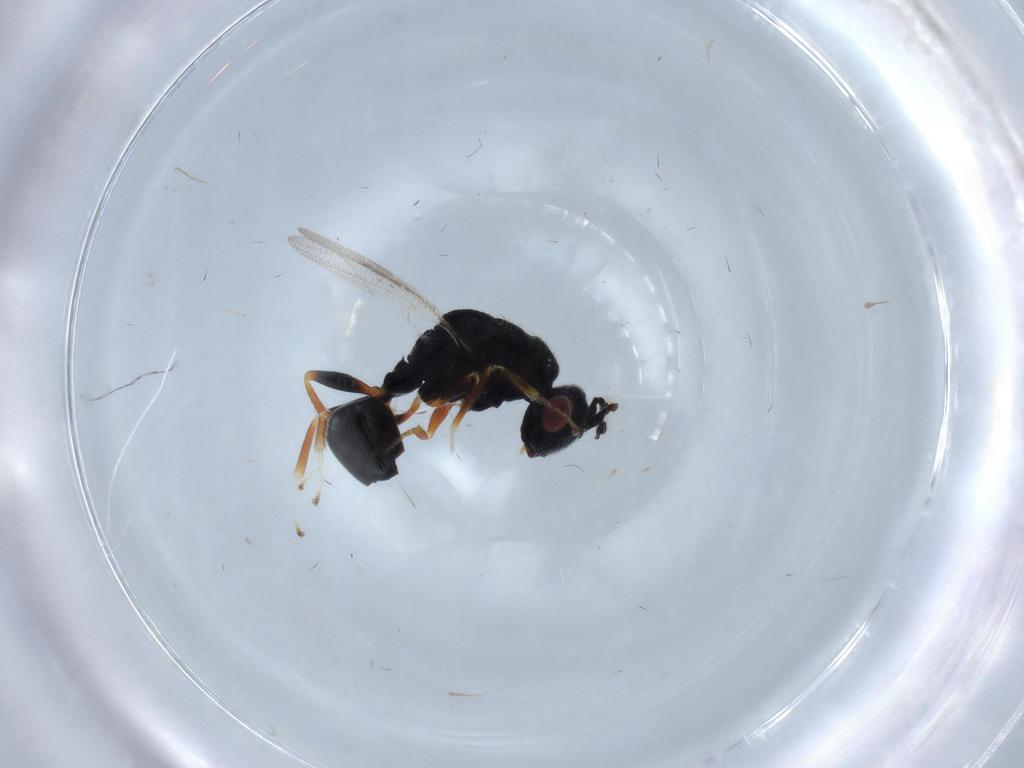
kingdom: Animalia
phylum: Arthropoda
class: Insecta
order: Hymenoptera
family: Eurytomidae
